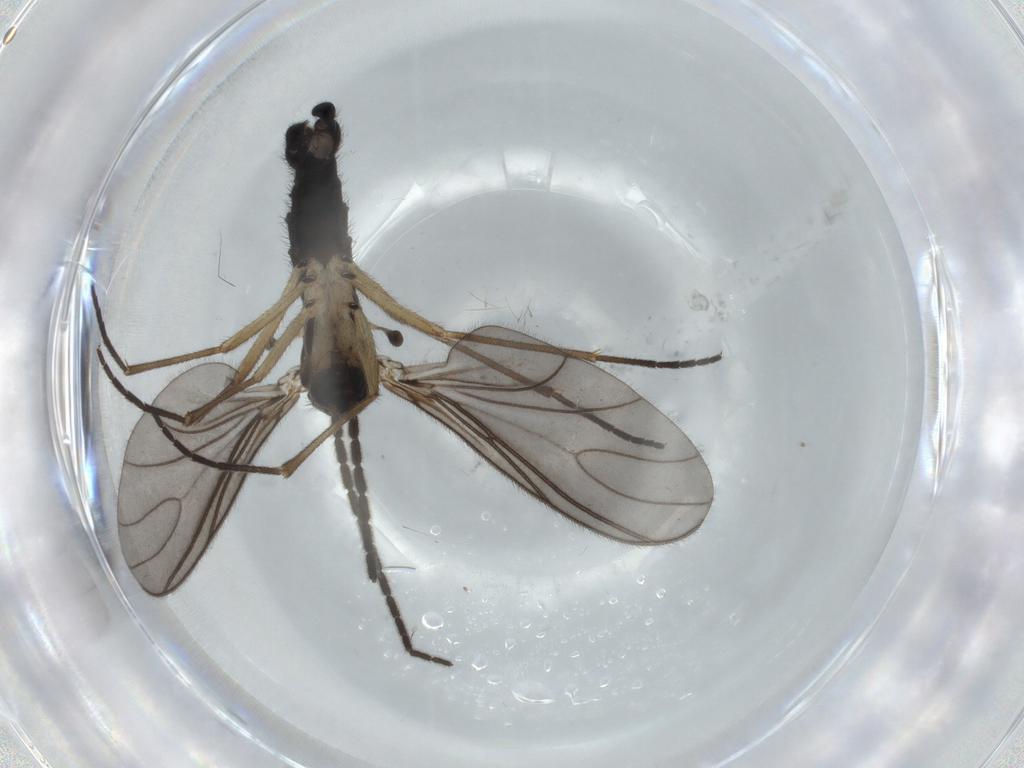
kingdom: Animalia
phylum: Arthropoda
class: Insecta
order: Diptera
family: Sciaridae
